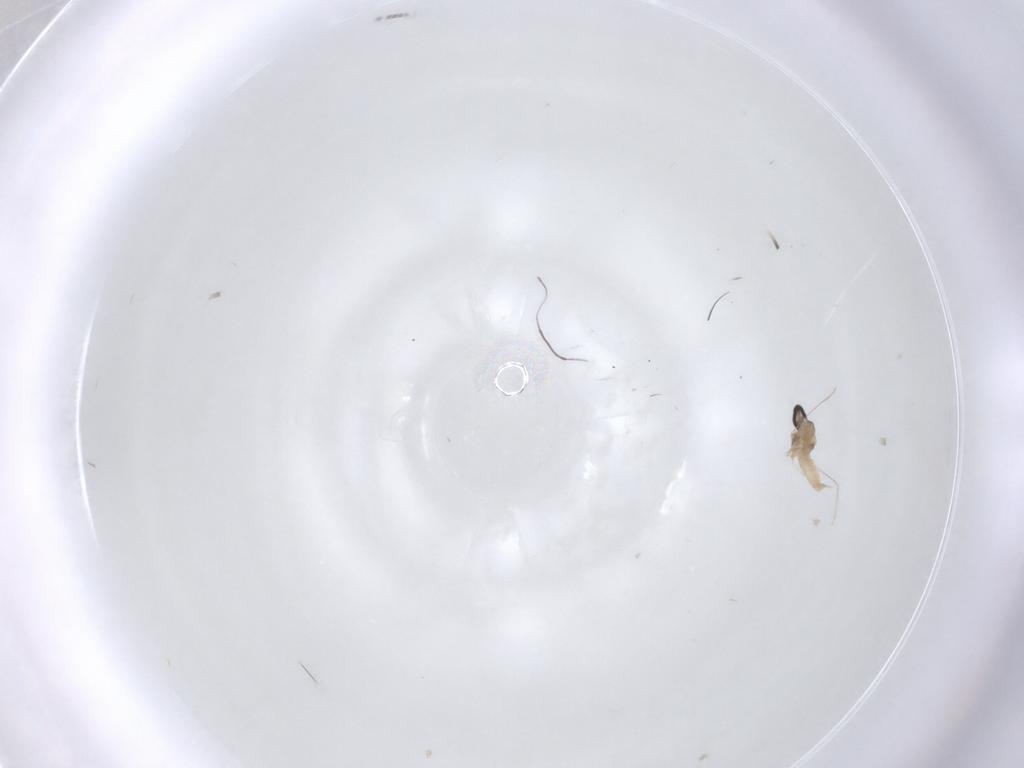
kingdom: Animalia
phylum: Arthropoda
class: Insecta
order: Diptera
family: Cecidomyiidae
